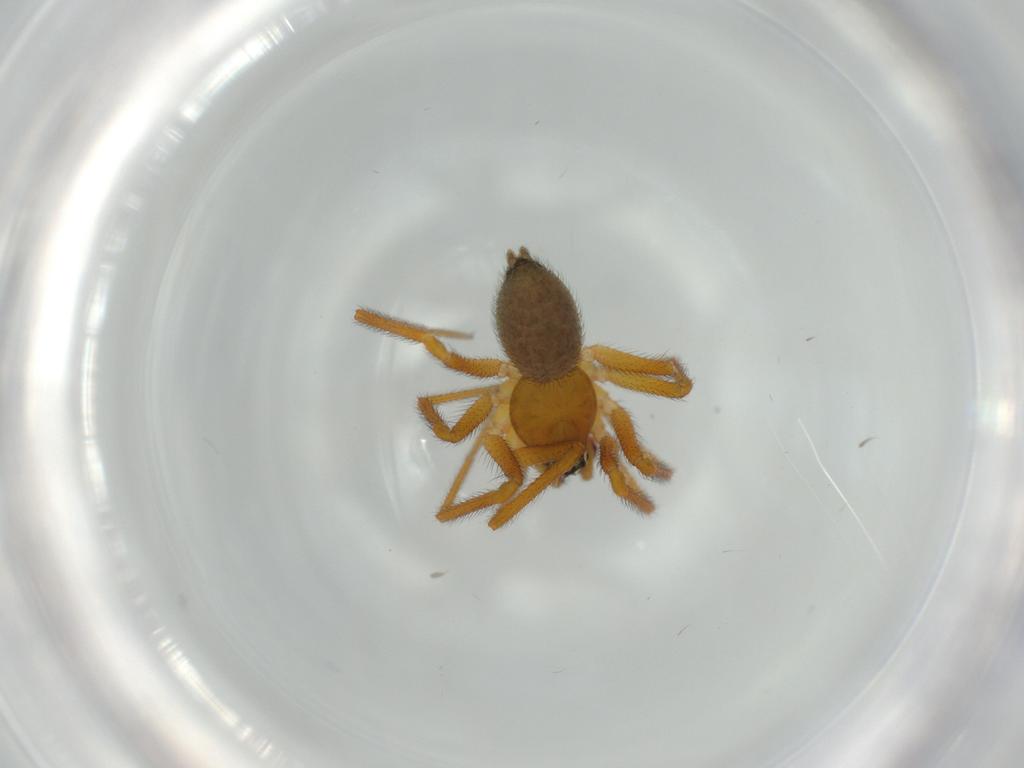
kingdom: Animalia
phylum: Arthropoda
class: Arachnida
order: Araneae
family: Linyphiidae
